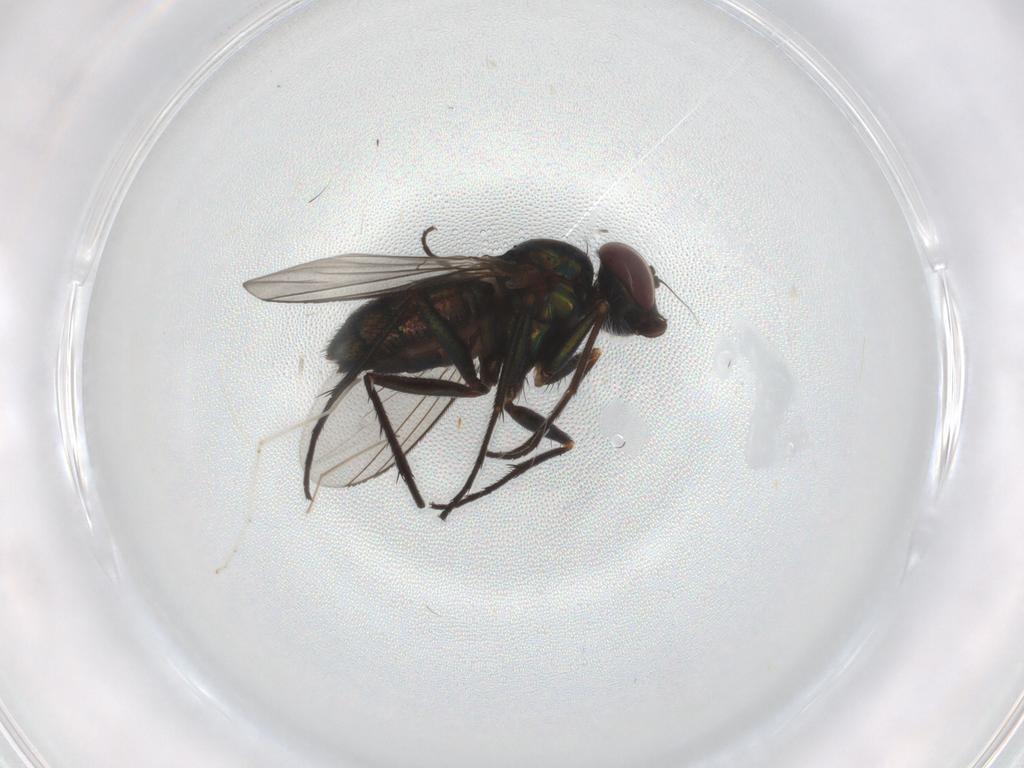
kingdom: Animalia
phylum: Arthropoda
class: Insecta
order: Diptera
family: Dolichopodidae
